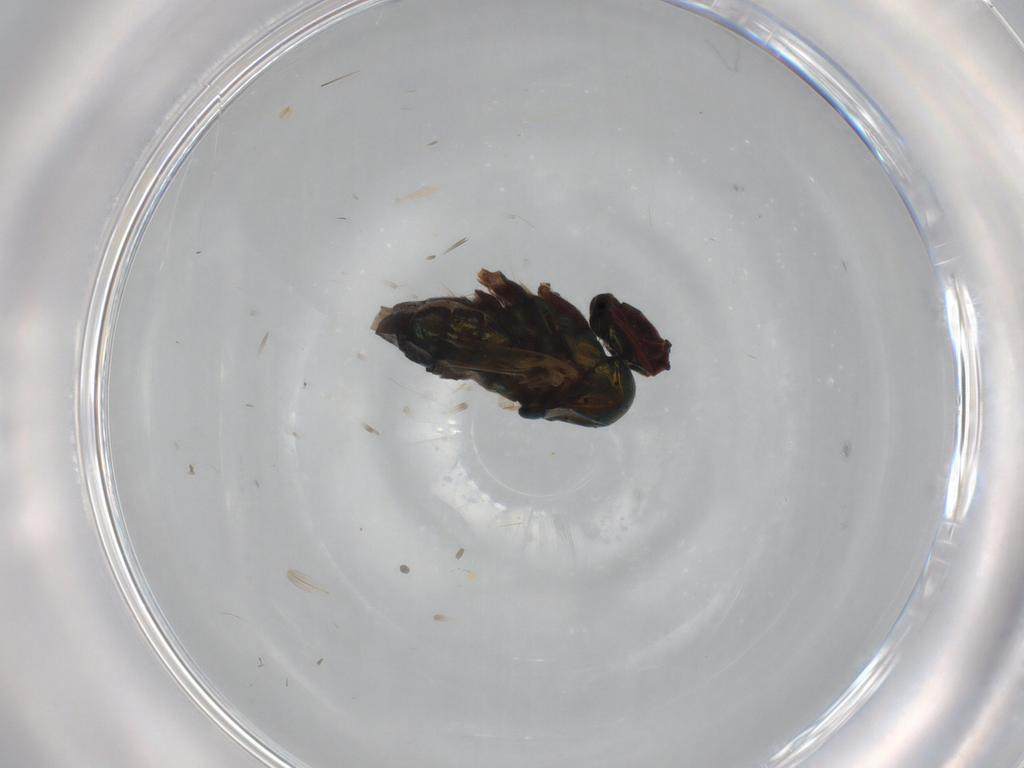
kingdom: Animalia
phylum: Arthropoda
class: Insecta
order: Diptera
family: Dolichopodidae
